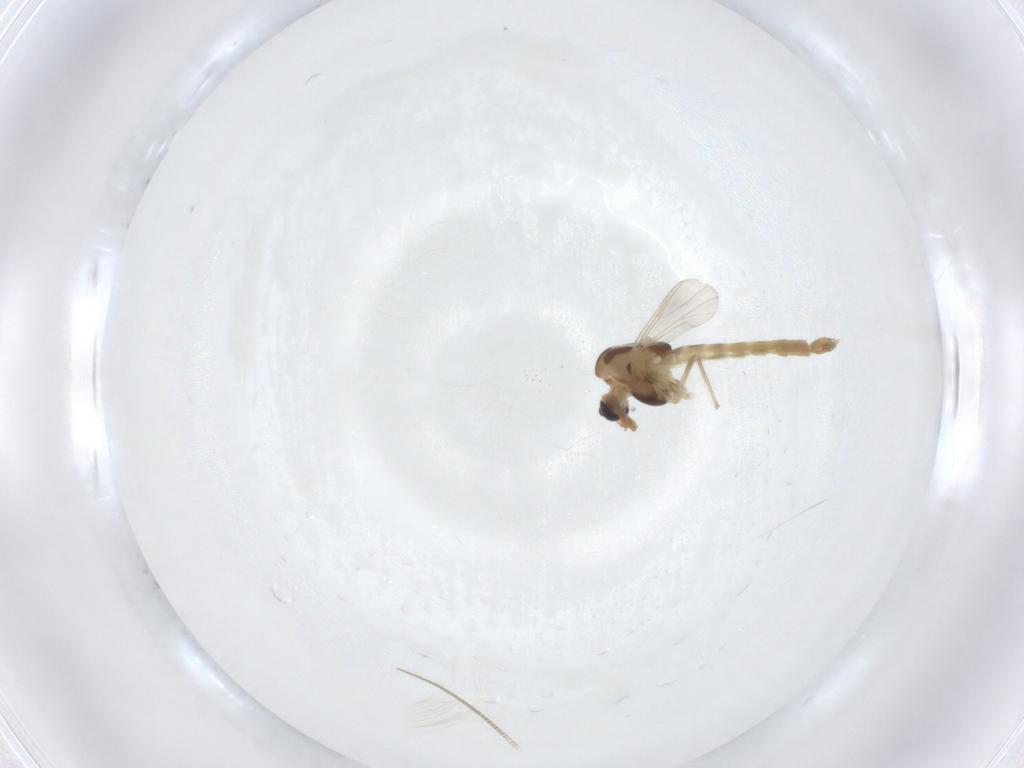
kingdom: Animalia
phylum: Arthropoda
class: Insecta
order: Diptera
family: Chironomidae
